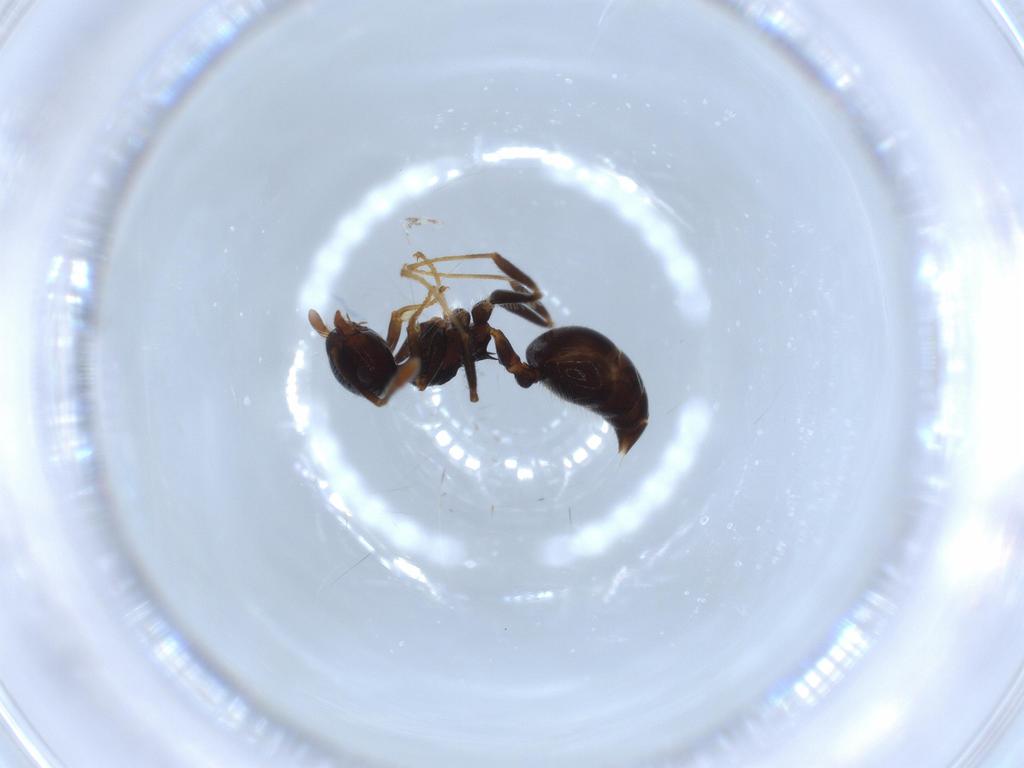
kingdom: Animalia
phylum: Arthropoda
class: Insecta
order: Hymenoptera
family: Formicidae
